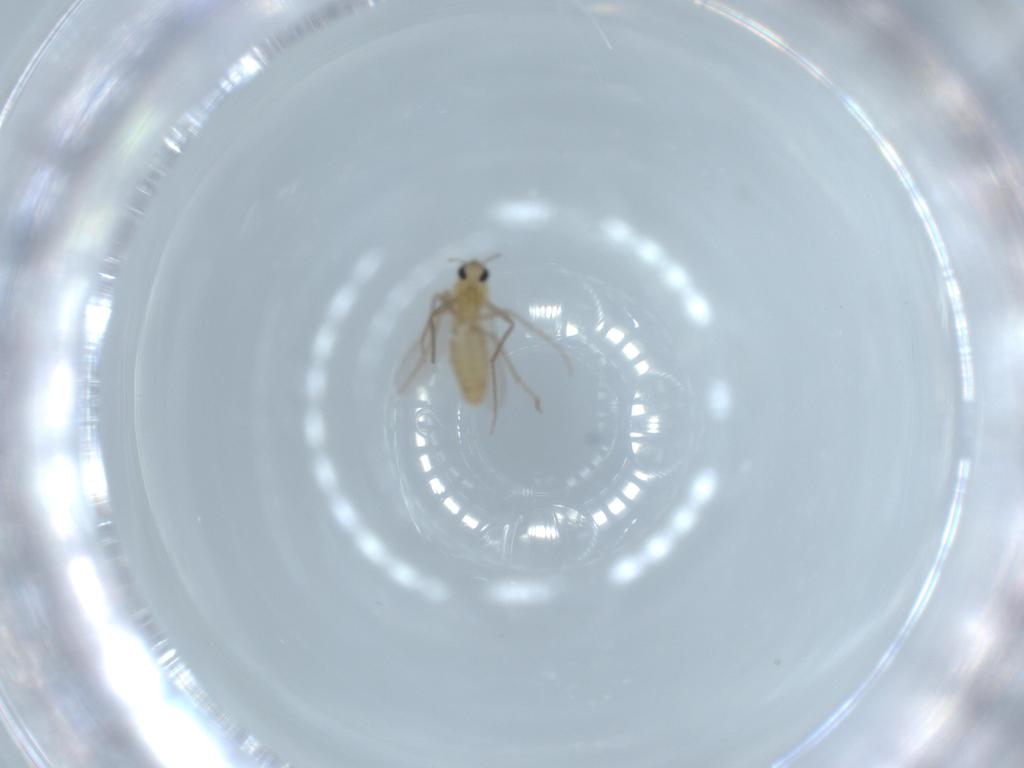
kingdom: Animalia
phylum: Arthropoda
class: Insecta
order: Diptera
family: Chironomidae
